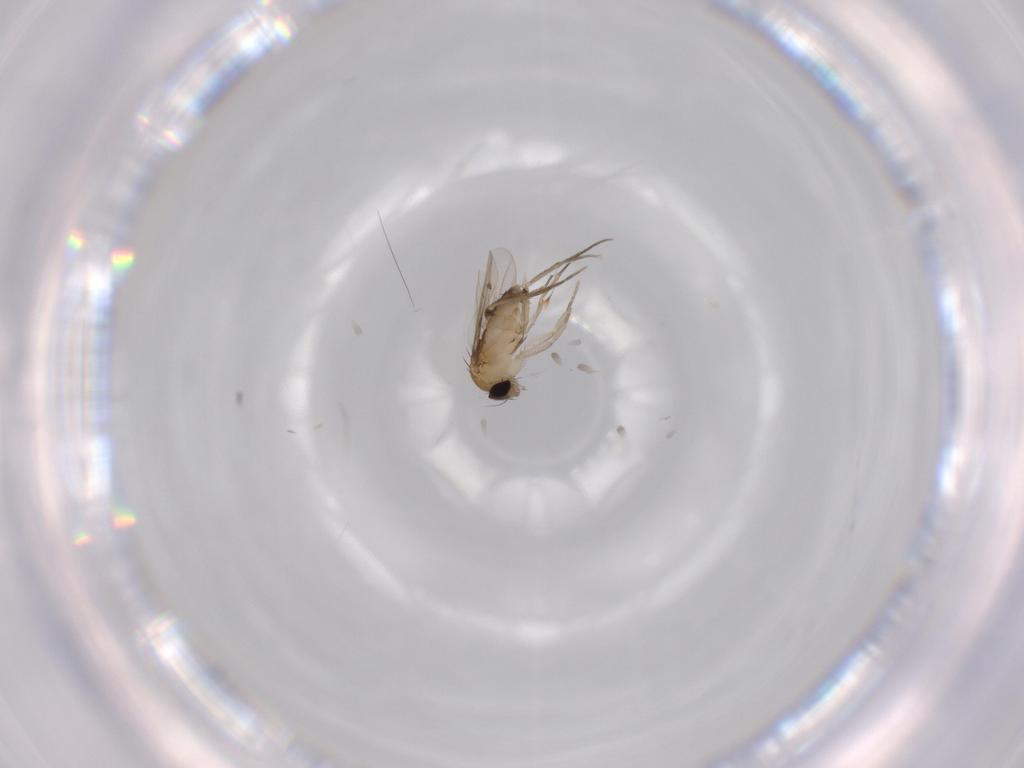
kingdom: Animalia
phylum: Arthropoda
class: Insecta
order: Diptera
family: Phoridae
